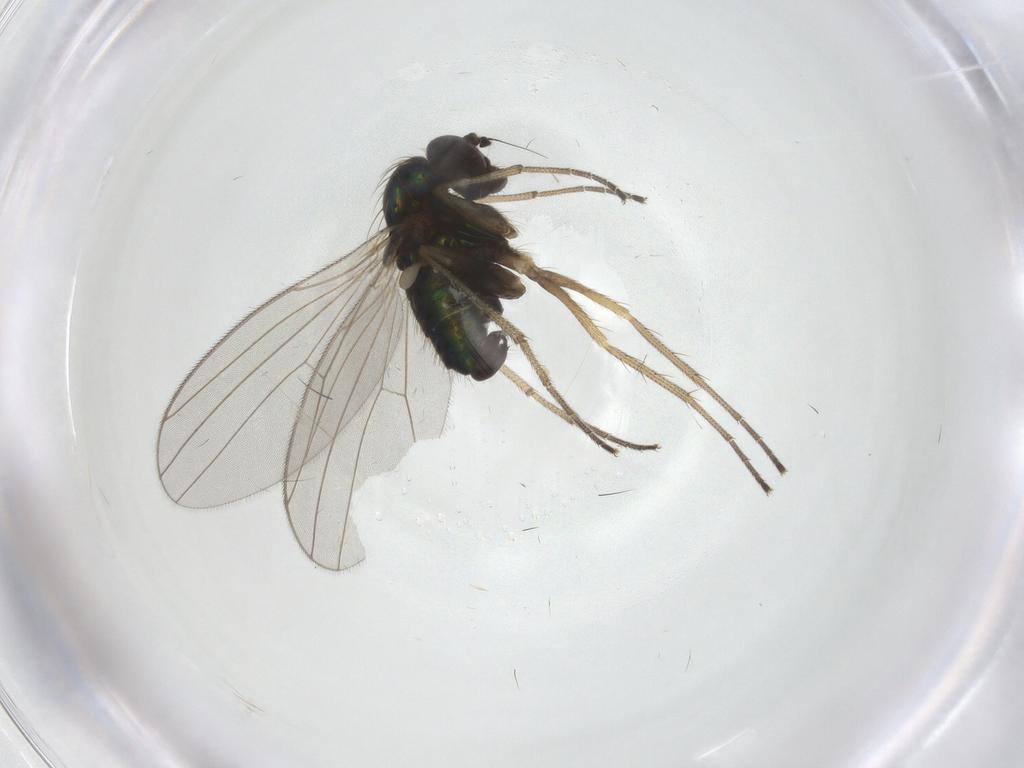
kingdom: Animalia
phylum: Arthropoda
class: Insecta
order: Diptera
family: Dolichopodidae
